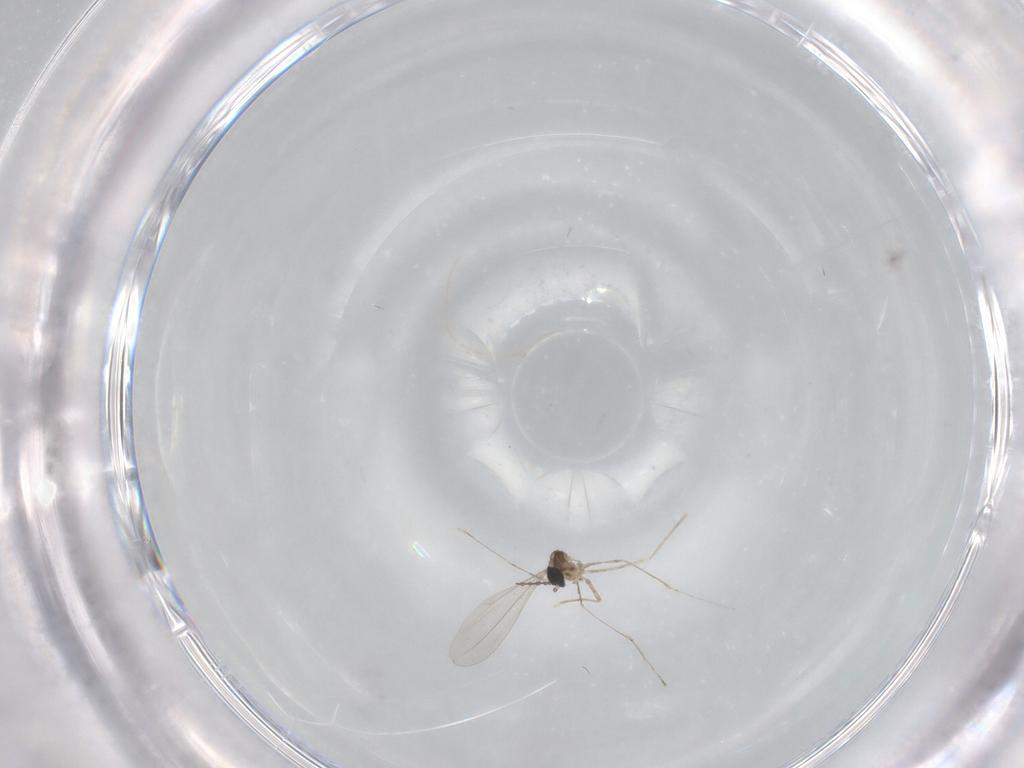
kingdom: Animalia
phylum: Arthropoda
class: Insecta
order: Diptera
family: Cecidomyiidae
